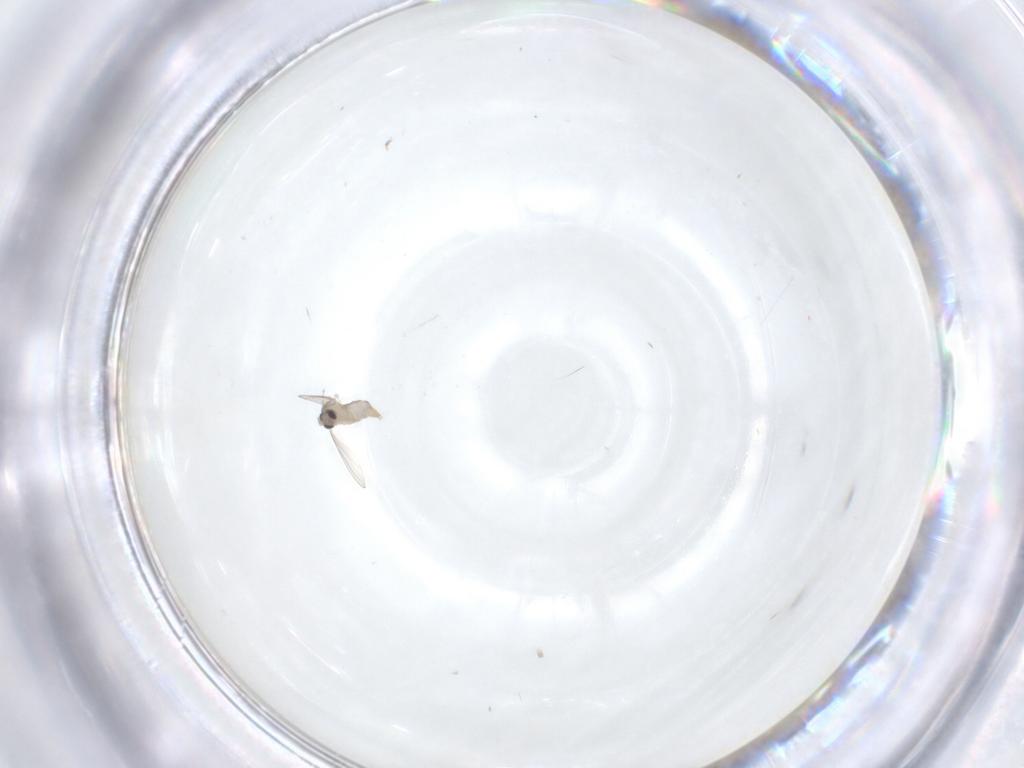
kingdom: Animalia
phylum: Arthropoda
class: Insecta
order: Diptera
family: Cecidomyiidae
